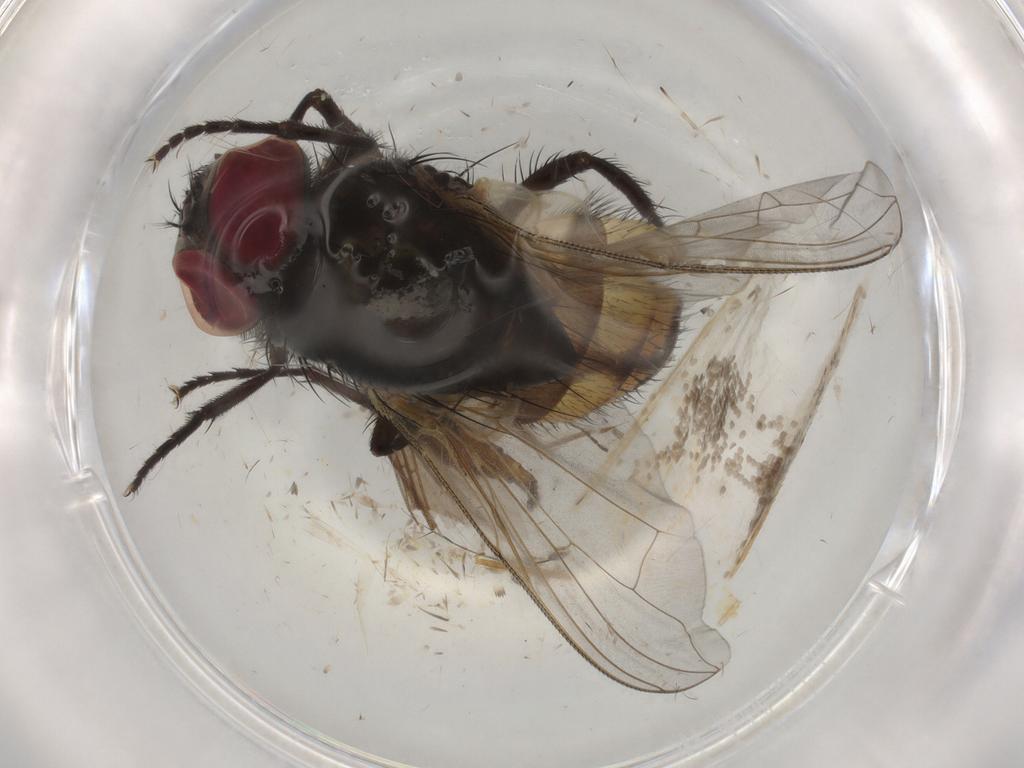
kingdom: Animalia
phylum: Arthropoda
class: Insecta
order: Diptera
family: Muscidae
